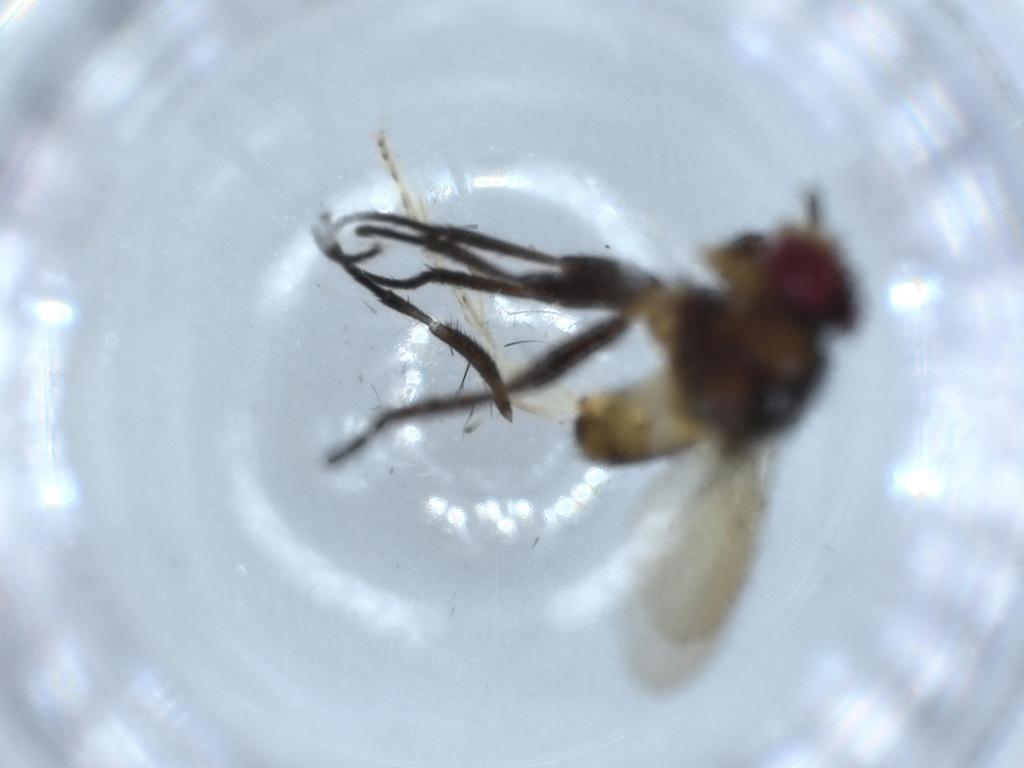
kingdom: Animalia
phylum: Arthropoda
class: Insecta
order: Diptera
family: Anthomyiidae
